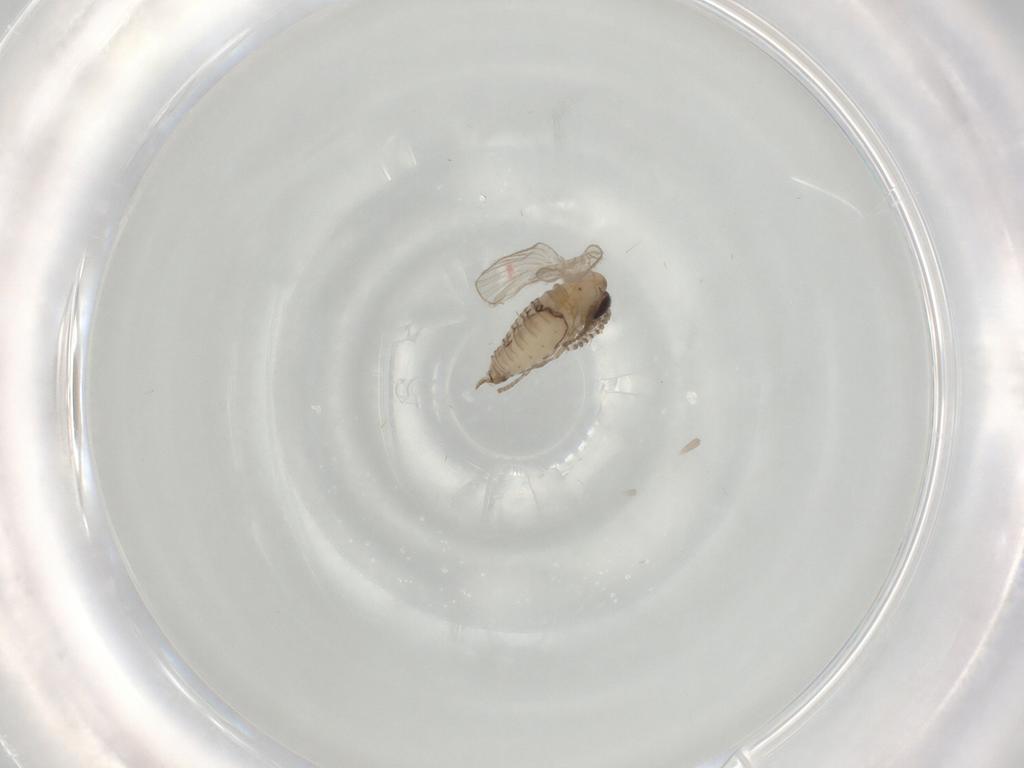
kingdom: Animalia
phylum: Arthropoda
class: Insecta
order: Diptera
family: Psychodidae
